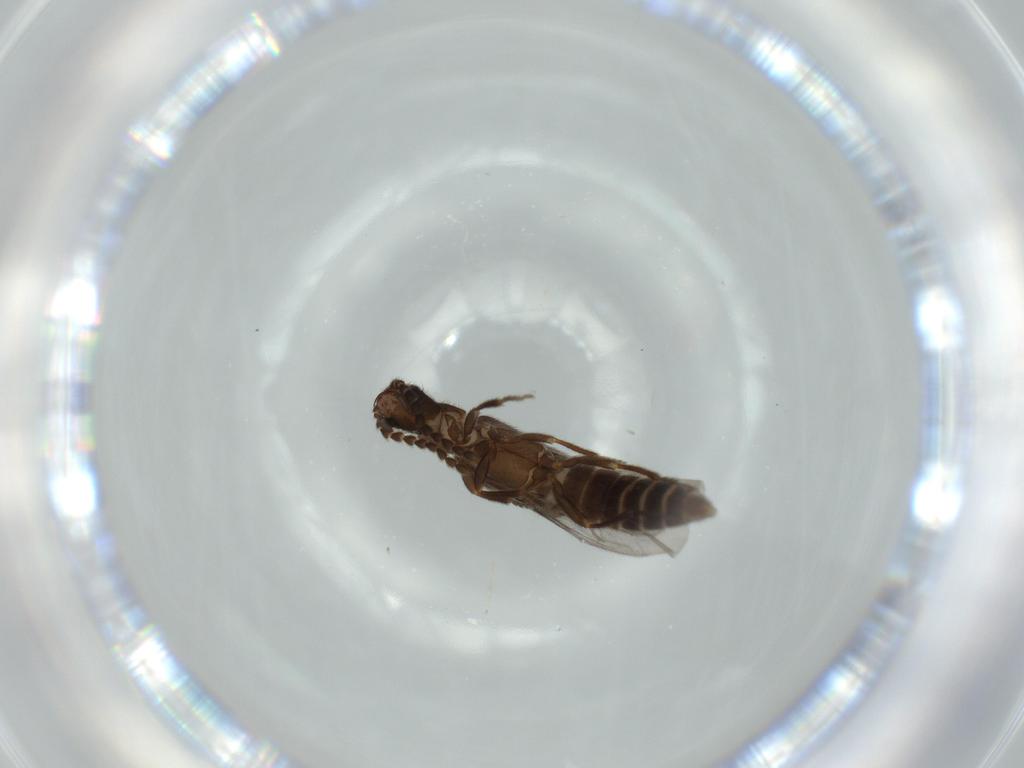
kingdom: Animalia
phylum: Arthropoda
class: Insecta
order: Coleoptera
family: Omethidae
